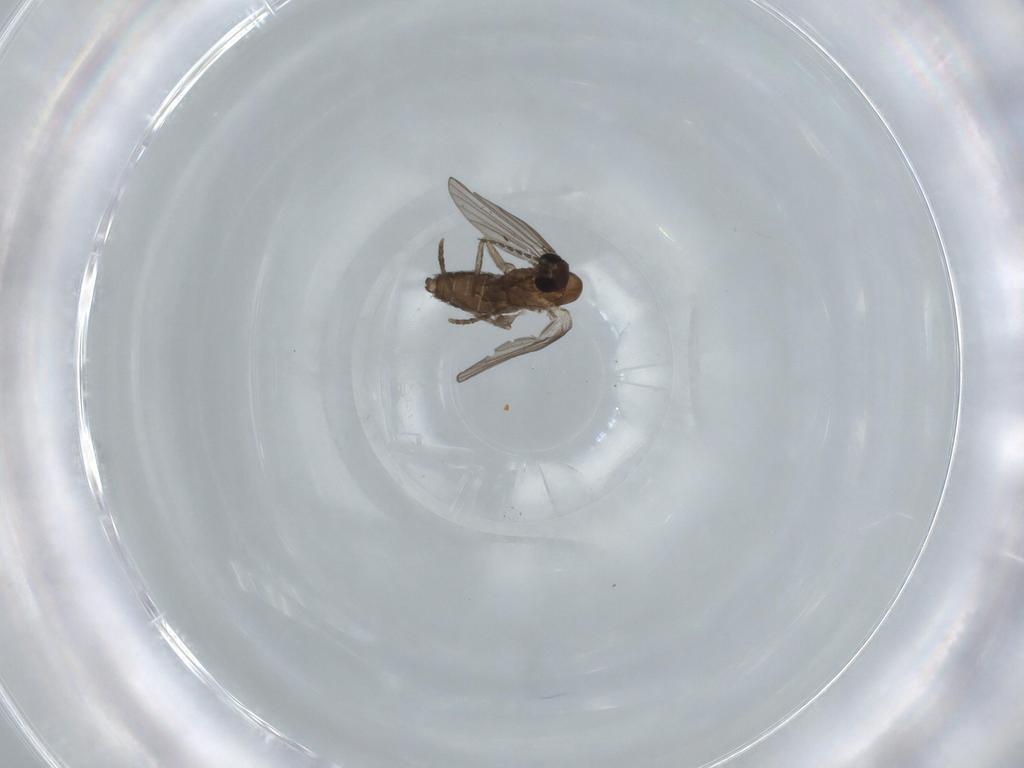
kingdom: Animalia
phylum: Arthropoda
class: Insecta
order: Diptera
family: Psychodidae
